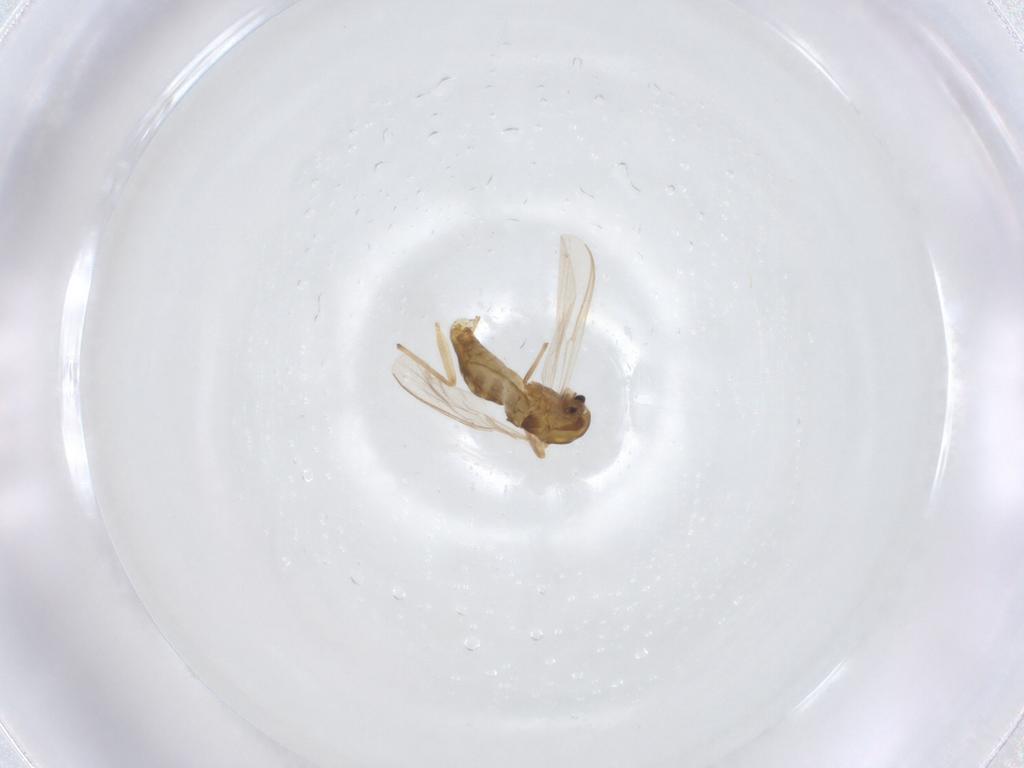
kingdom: Animalia
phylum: Arthropoda
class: Insecta
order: Diptera
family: Chironomidae
